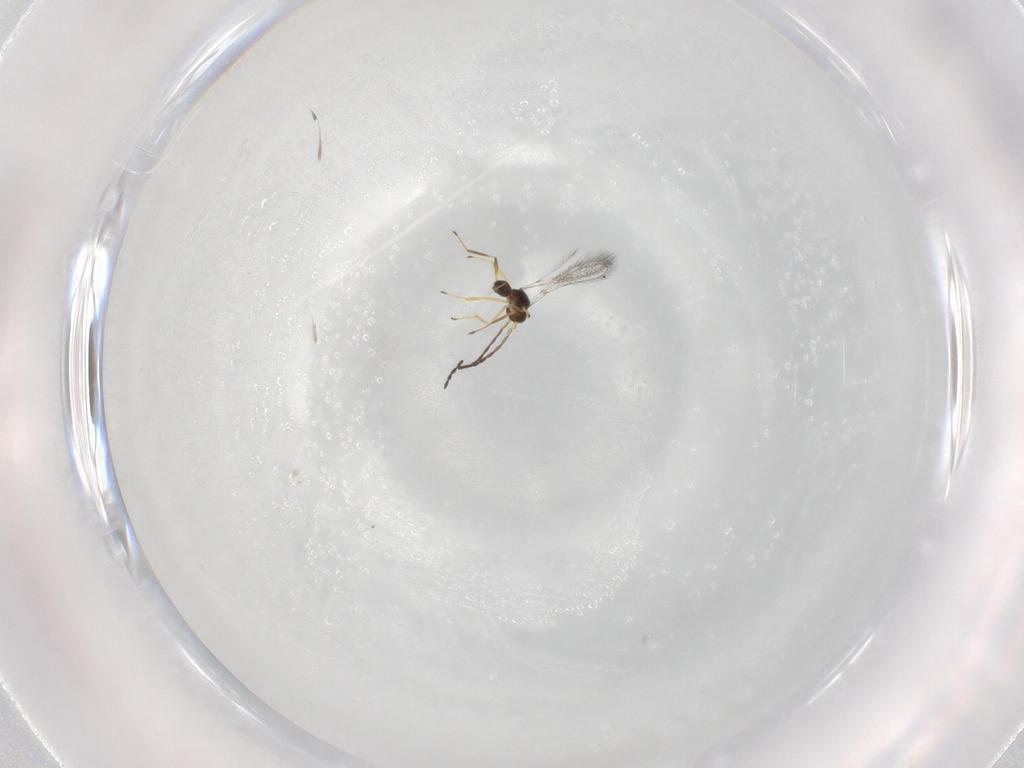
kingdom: Animalia
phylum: Arthropoda
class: Insecta
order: Hymenoptera
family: Mymaridae
